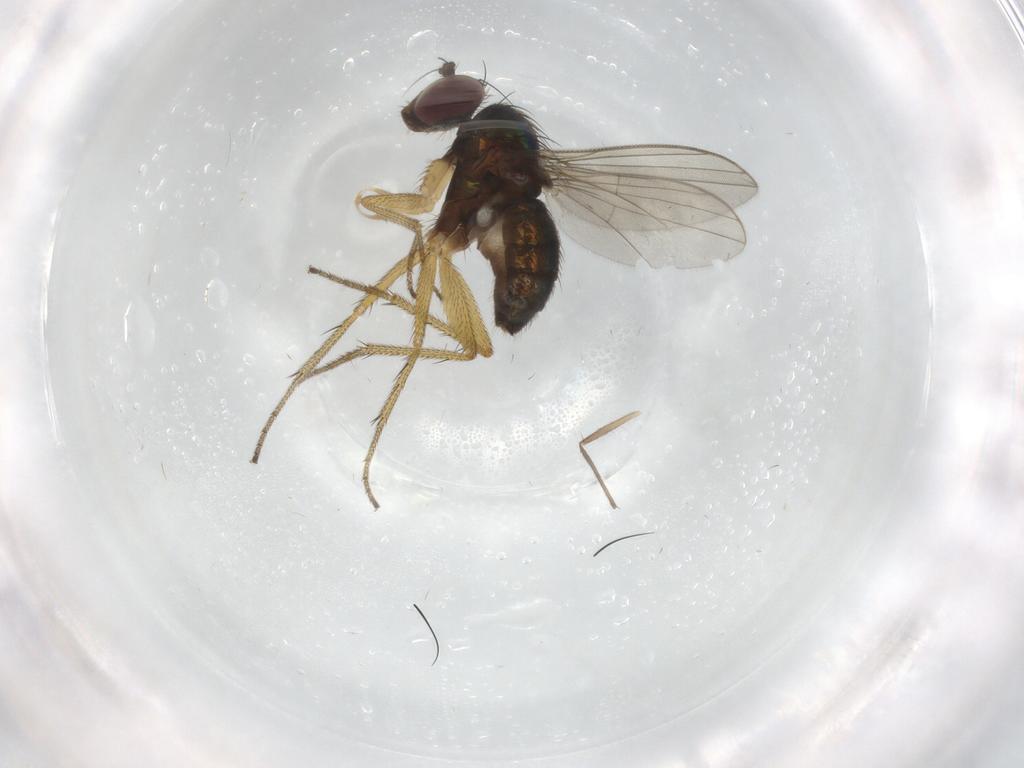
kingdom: Animalia
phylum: Arthropoda
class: Insecta
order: Diptera
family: Chironomidae
